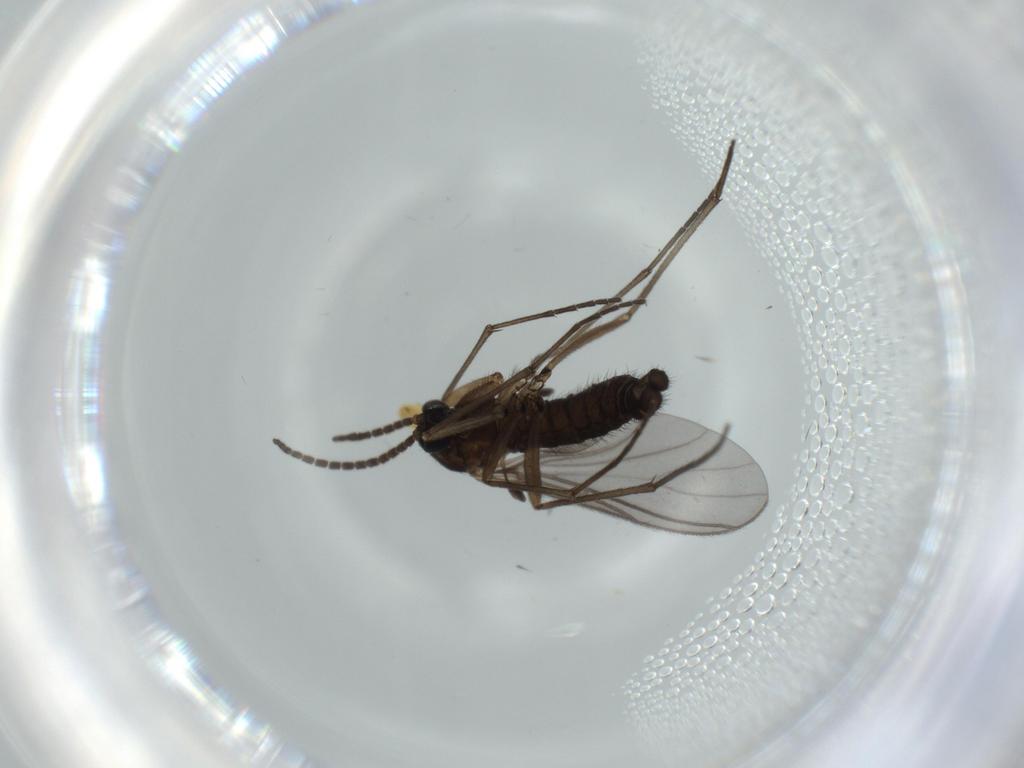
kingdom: Animalia
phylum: Arthropoda
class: Insecta
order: Diptera
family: Sciaridae
